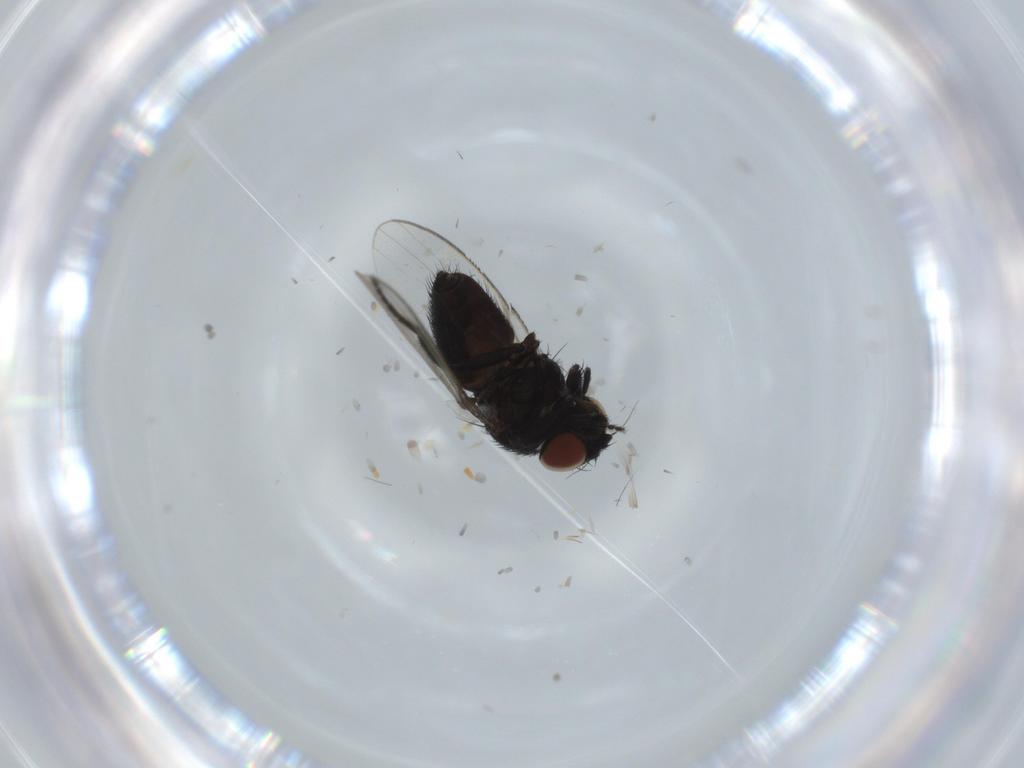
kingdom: Animalia
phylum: Arthropoda
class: Insecta
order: Diptera
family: Milichiidae
